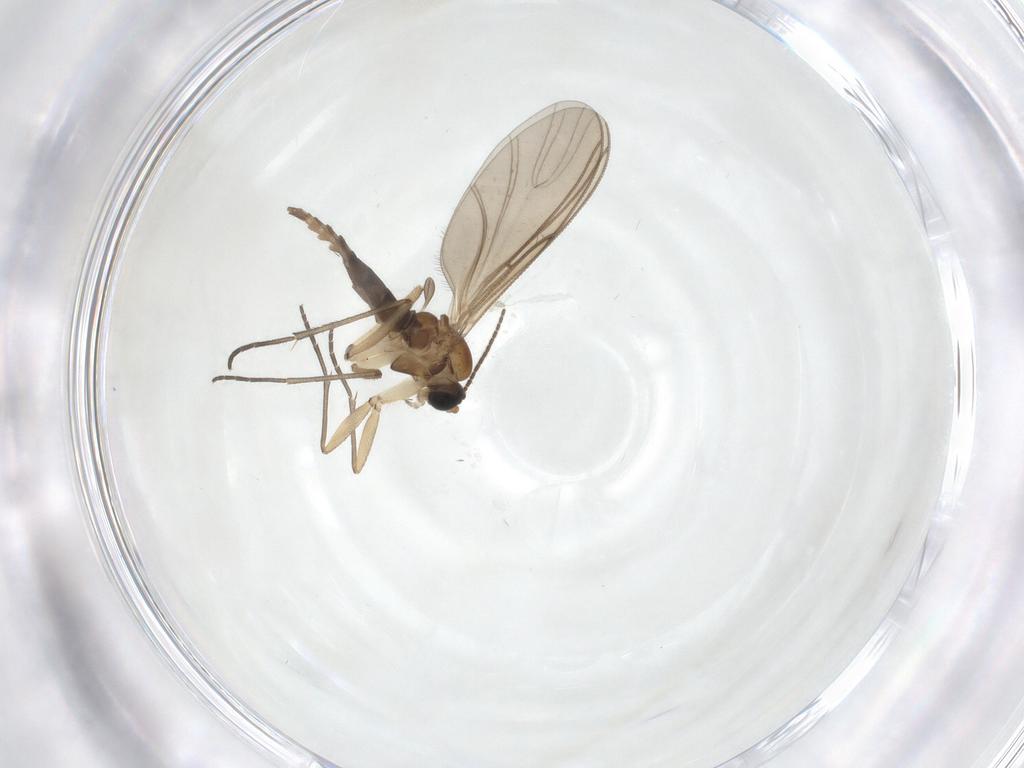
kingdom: Animalia
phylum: Arthropoda
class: Insecta
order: Diptera
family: Sciaridae
